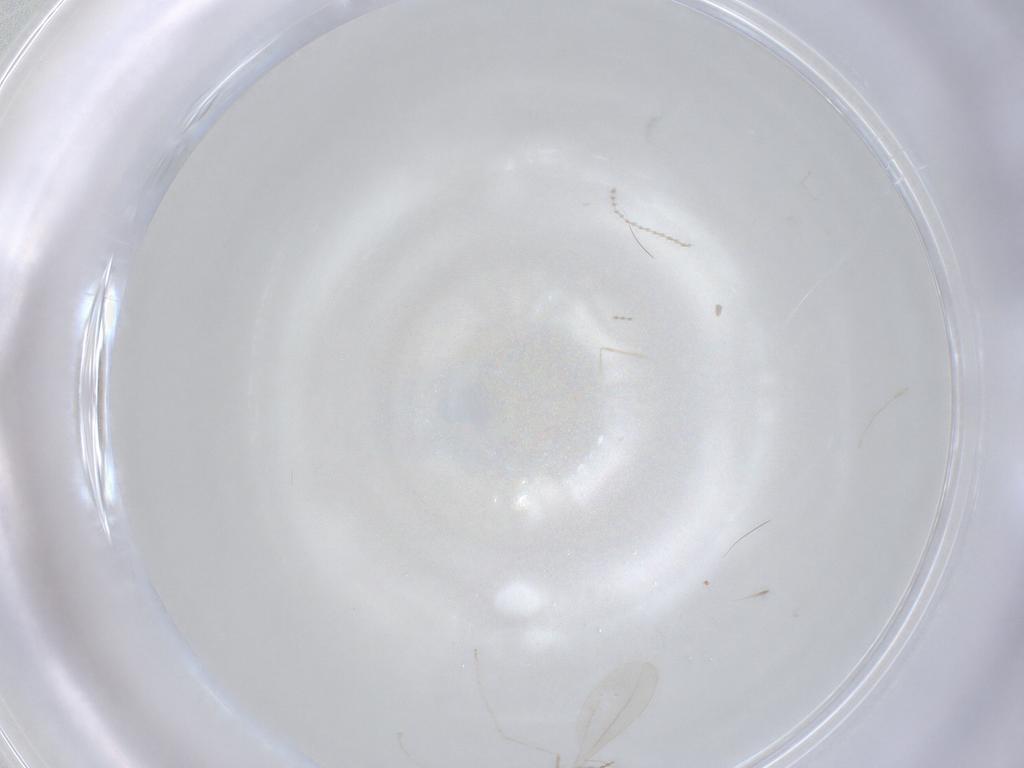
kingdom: Animalia
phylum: Arthropoda
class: Insecta
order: Diptera
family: Cecidomyiidae
